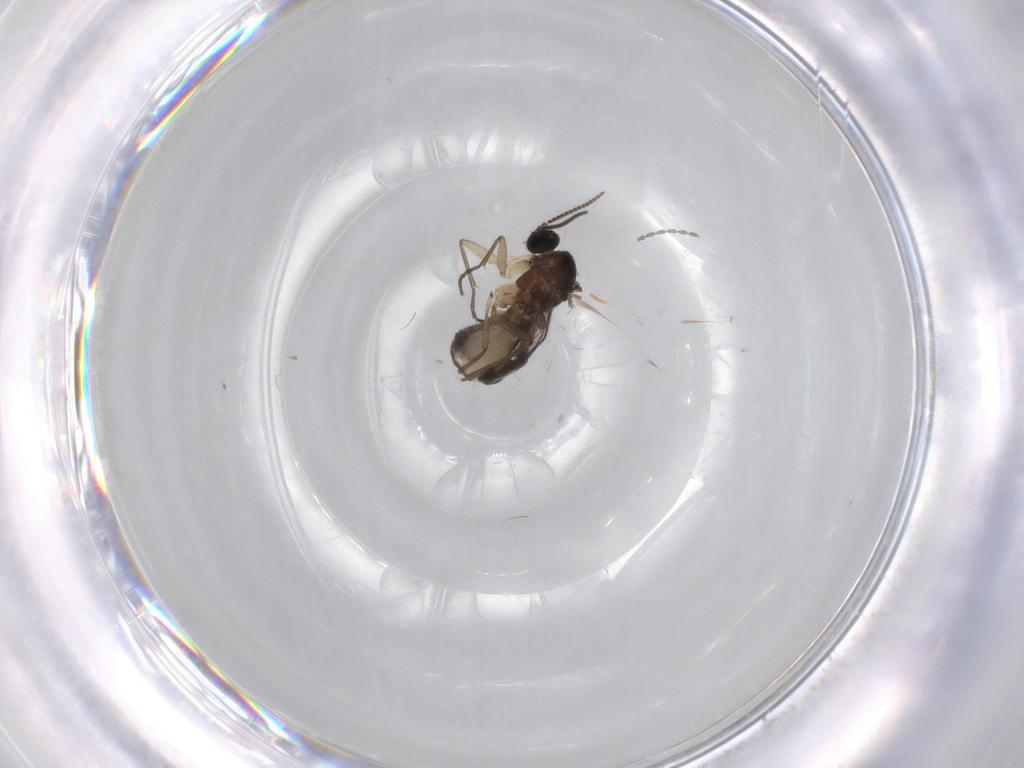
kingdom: Animalia
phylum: Arthropoda
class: Insecta
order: Diptera
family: Sciaridae
